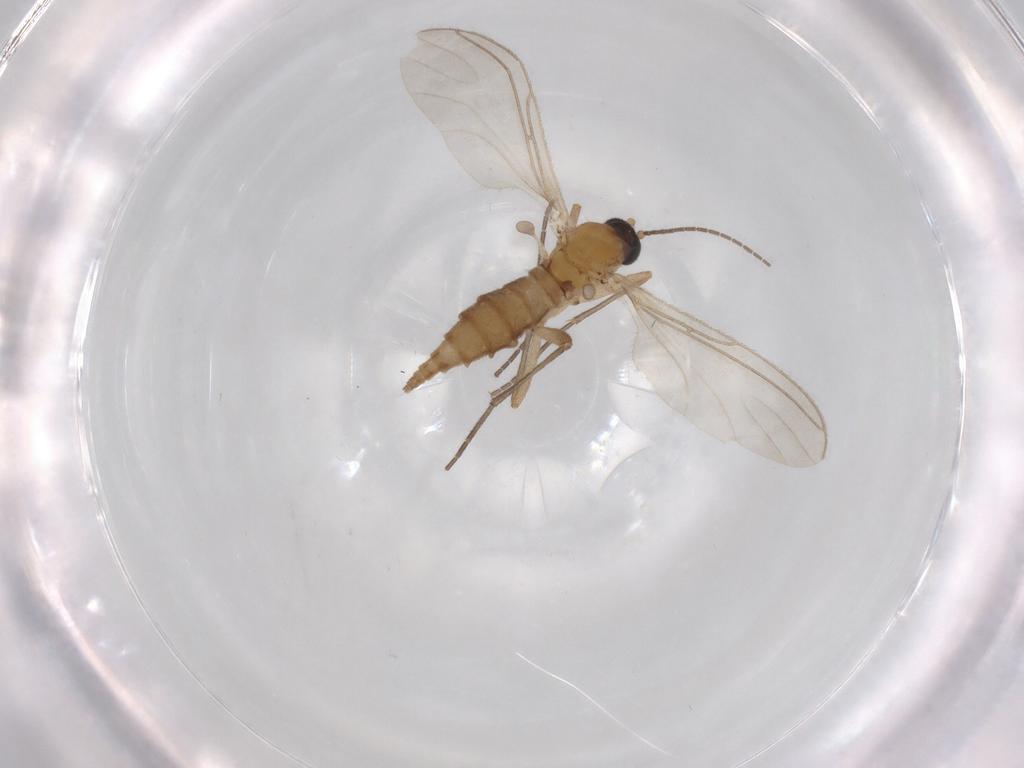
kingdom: Animalia
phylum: Arthropoda
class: Insecta
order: Diptera
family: Sciaridae
